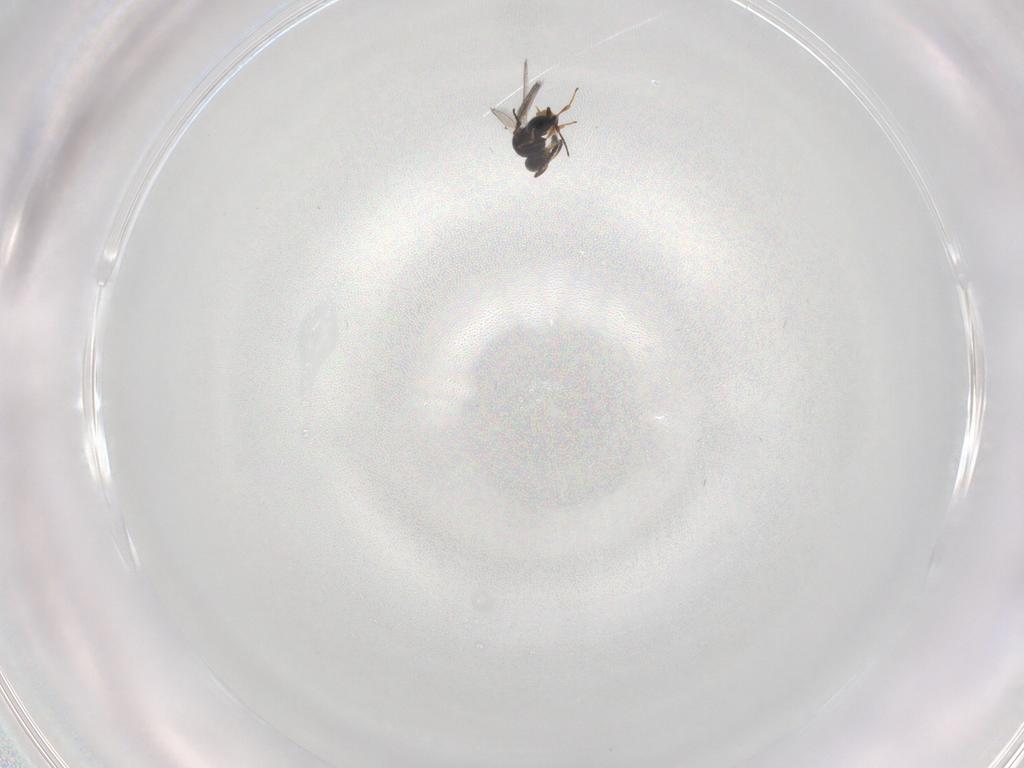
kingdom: Animalia
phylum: Arthropoda
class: Insecta
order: Hymenoptera
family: Platygastridae
